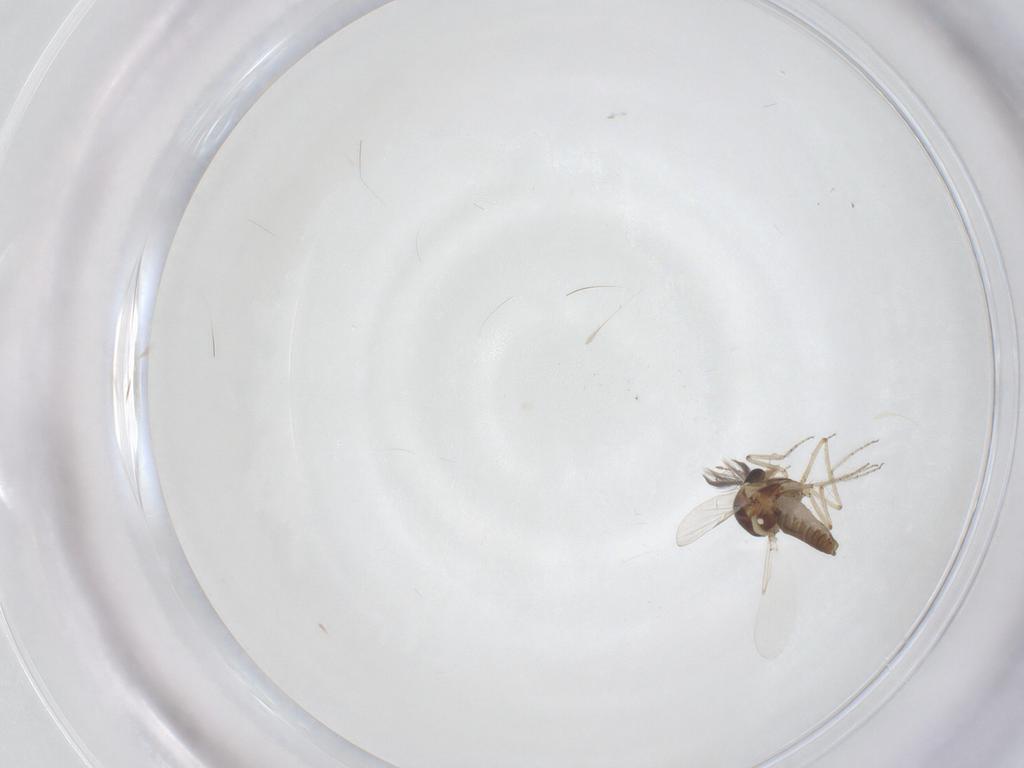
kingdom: Animalia
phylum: Arthropoda
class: Insecta
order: Diptera
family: Ceratopogonidae
